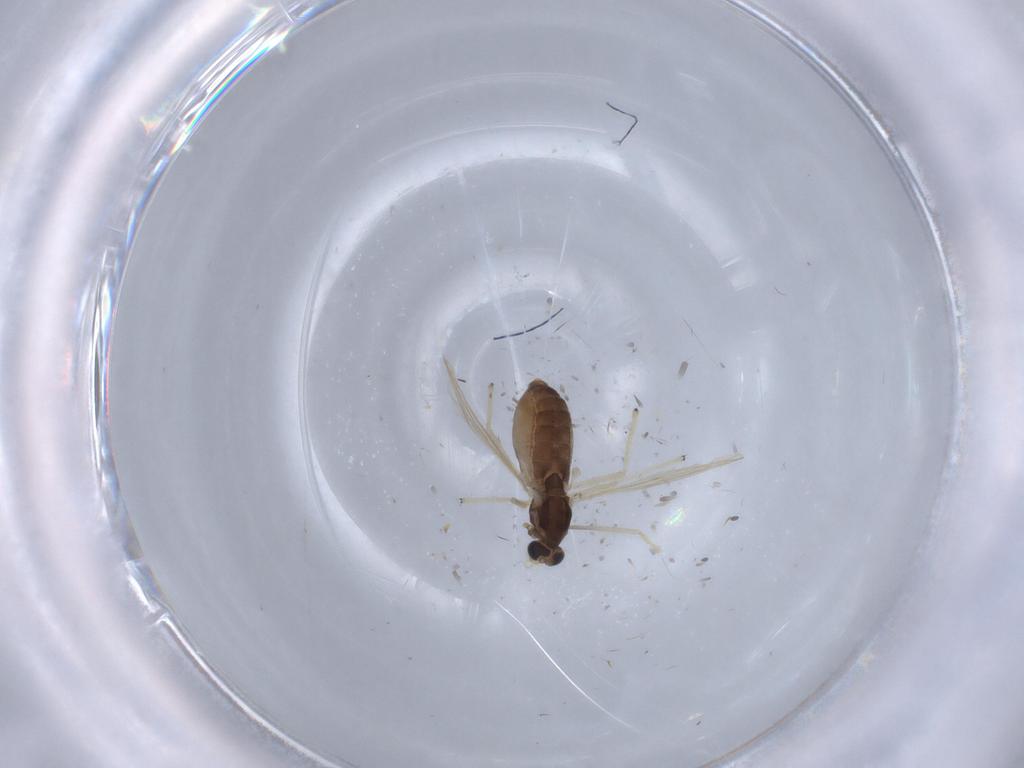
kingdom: Animalia
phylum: Arthropoda
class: Insecta
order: Diptera
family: Chironomidae
